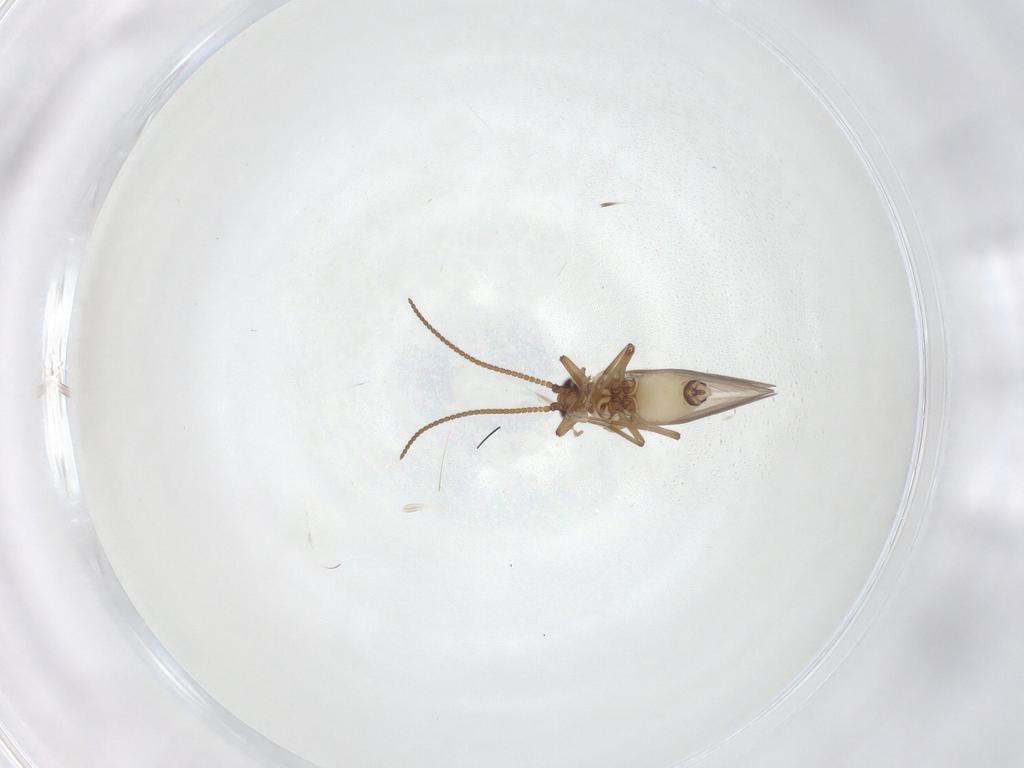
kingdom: Animalia
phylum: Arthropoda
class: Insecta
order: Neuroptera
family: Coniopterygidae
